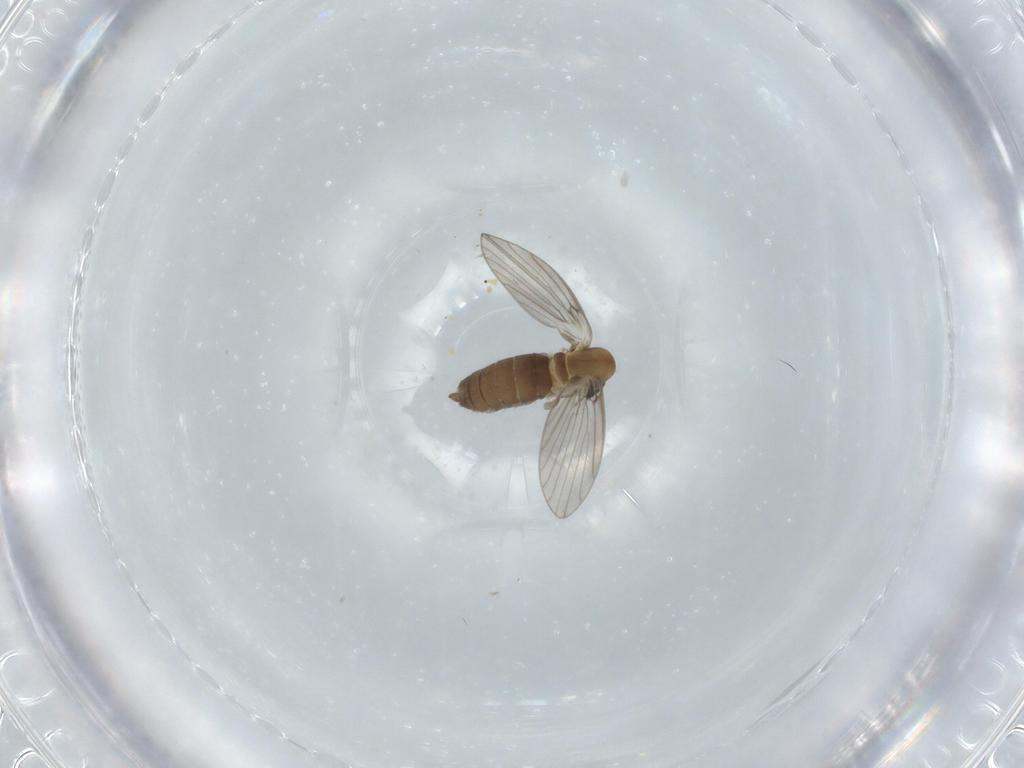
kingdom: Animalia
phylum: Arthropoda
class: Insecta
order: Diptera
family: Psychodidae
